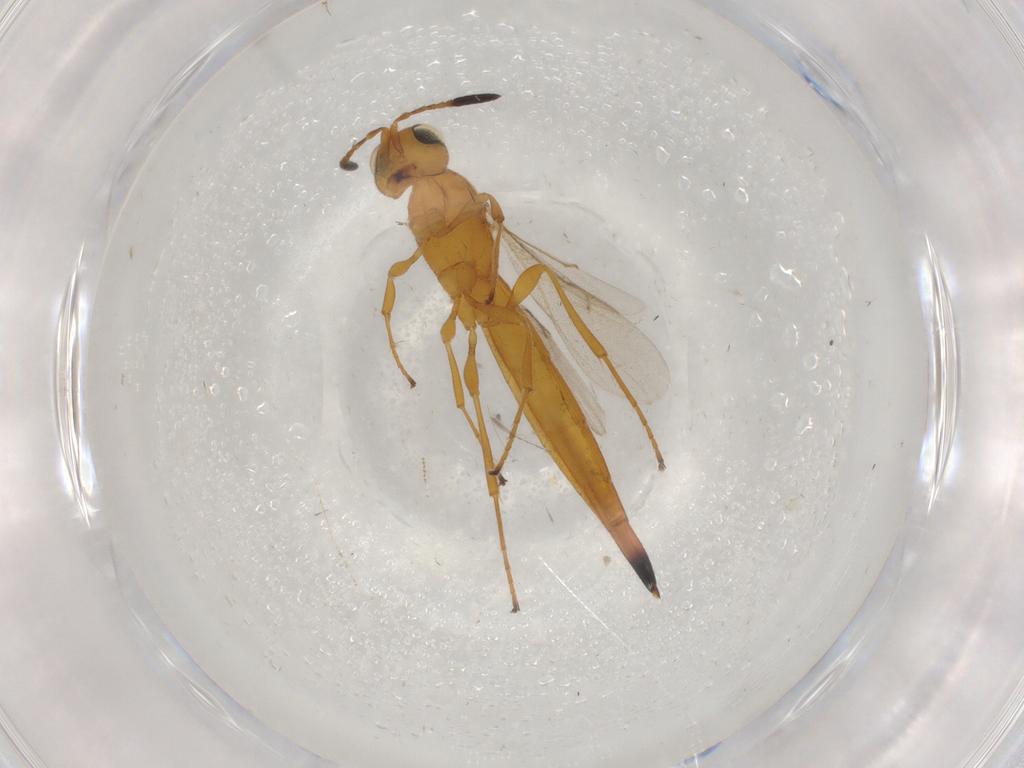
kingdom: Animalia
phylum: Arthropoda
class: Insecta
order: Hymenoptera
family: Scelionidae
